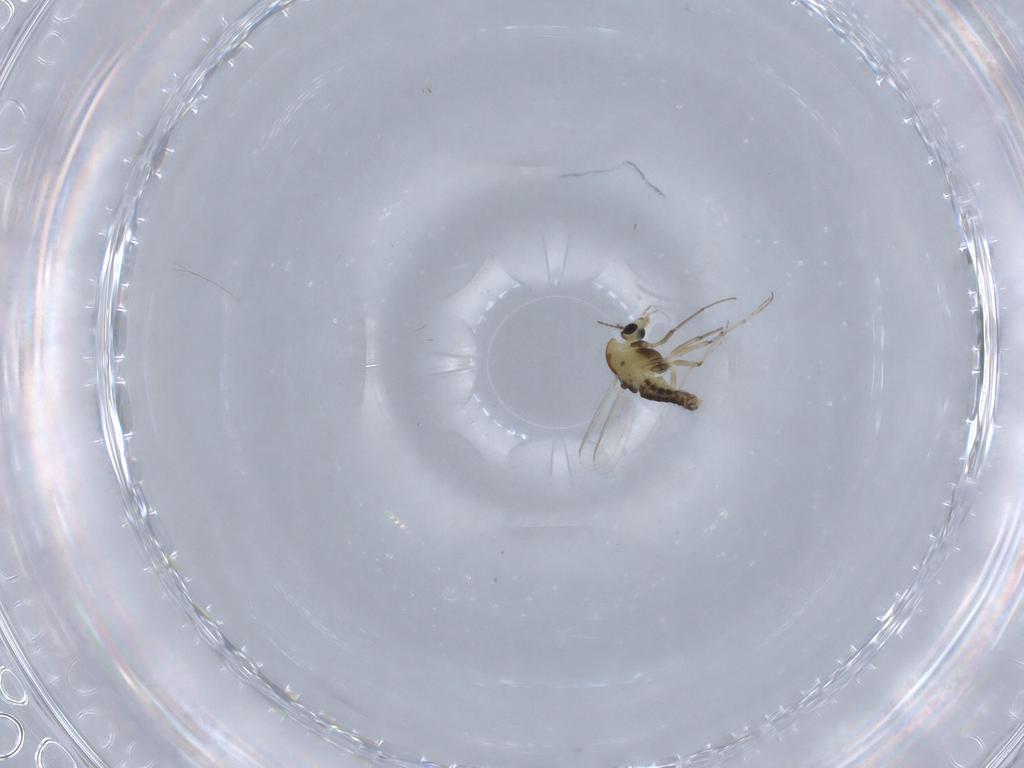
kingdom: Animalia
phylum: Arthropoda
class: Insecta
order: Diptera
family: Chironomidae
